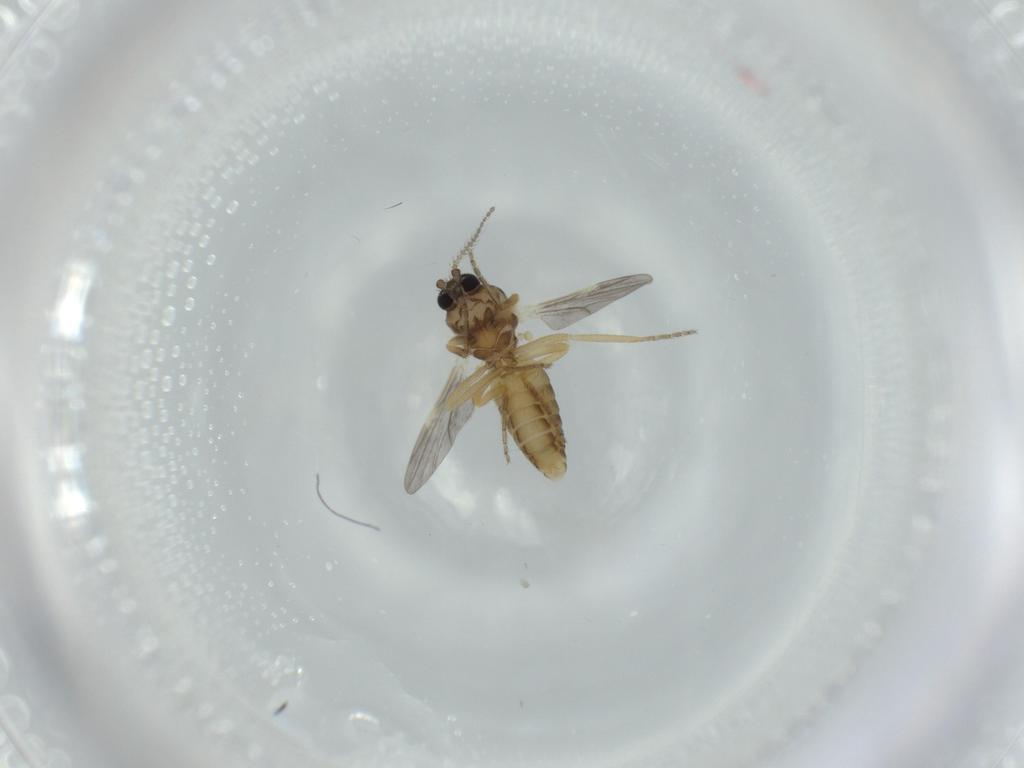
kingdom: Animalia
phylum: Arthropoda
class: Insecta
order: Diptera
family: Ceratopogonidae
